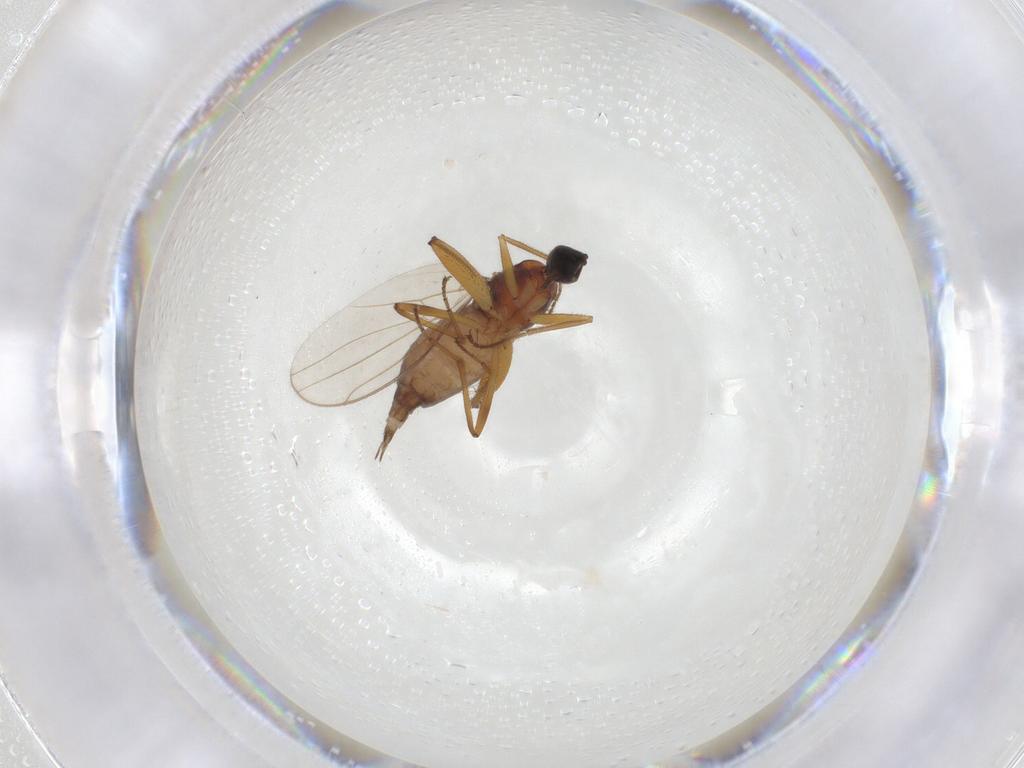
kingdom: Animalia
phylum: Arthropoda
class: Insecta
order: Diptera
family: Hybotidae
